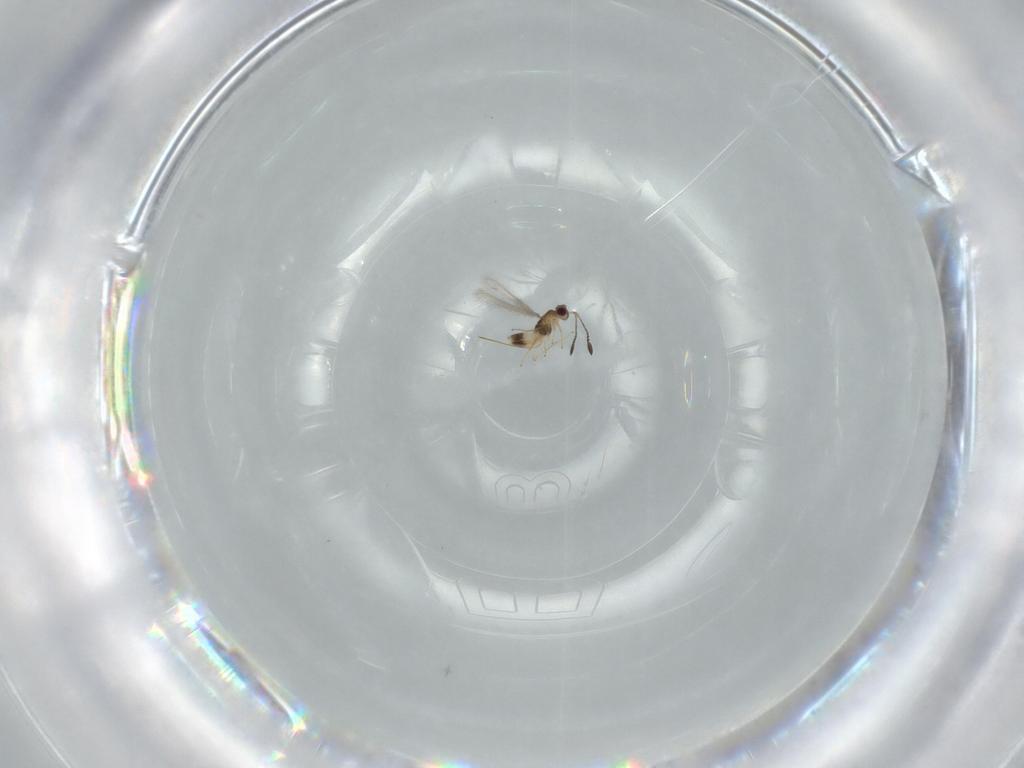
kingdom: Animalia
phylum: Arthropoda
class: Insecta
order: Hymenoptera
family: Mymaridae
